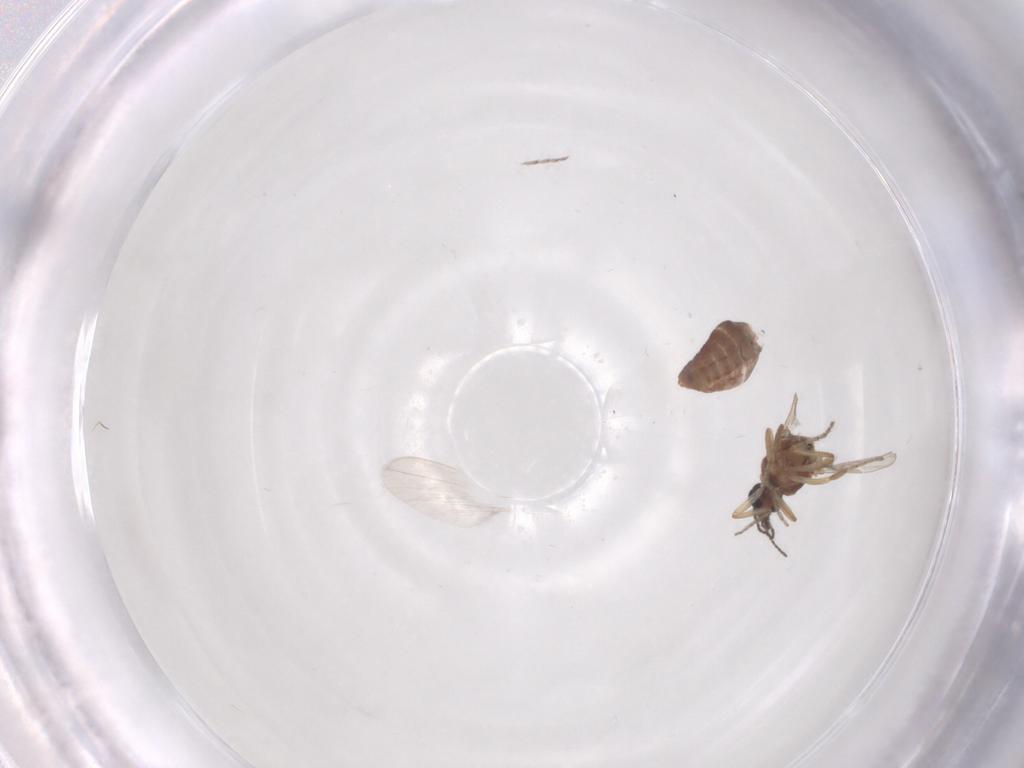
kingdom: Animalia
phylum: Arthropoda
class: Insecta
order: Diptera
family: Ceratopogonidae
